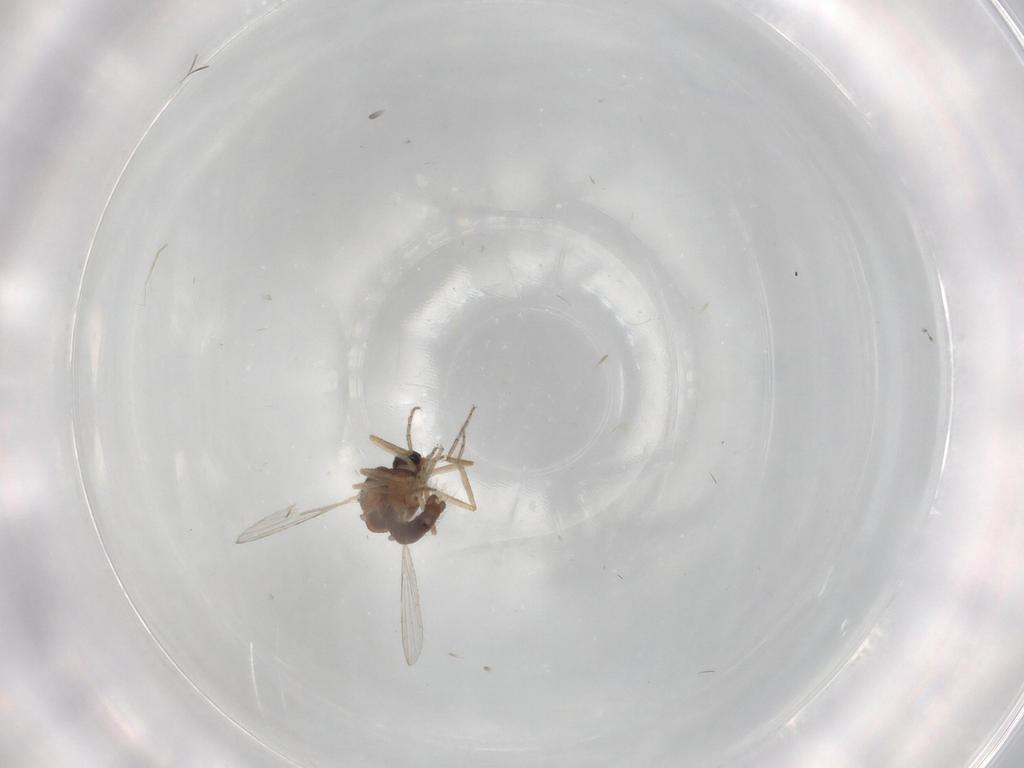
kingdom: Animalia
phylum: Arthropoda
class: Insecta
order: Diptera
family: Ceratopogonidae
